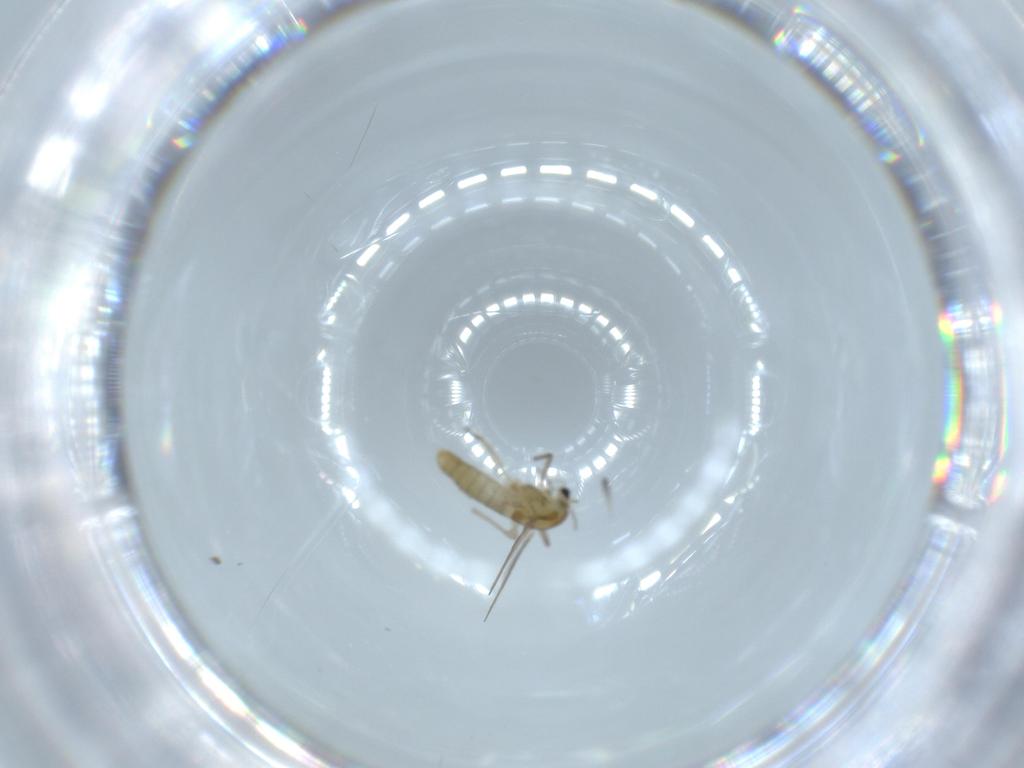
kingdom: Animalia
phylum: Arthropoda
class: Insecta
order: Diptera
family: Chironomidae
